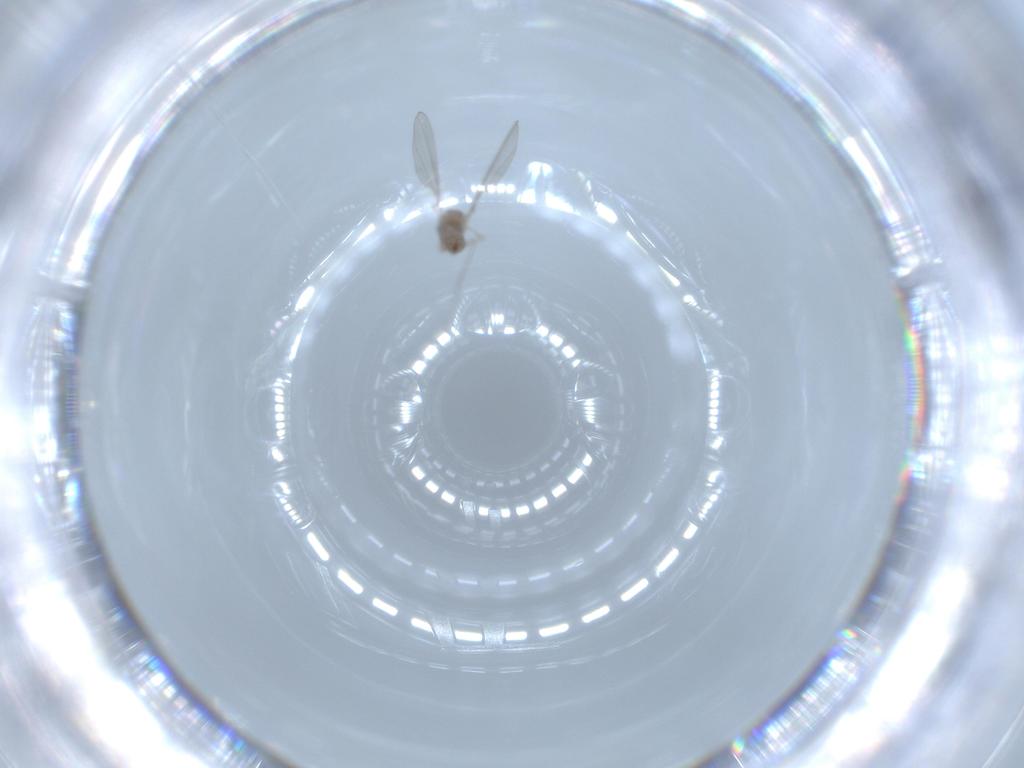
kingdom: Animalia
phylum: Arthropoda
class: Insecta
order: Diptera
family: Cecidomyiidae
